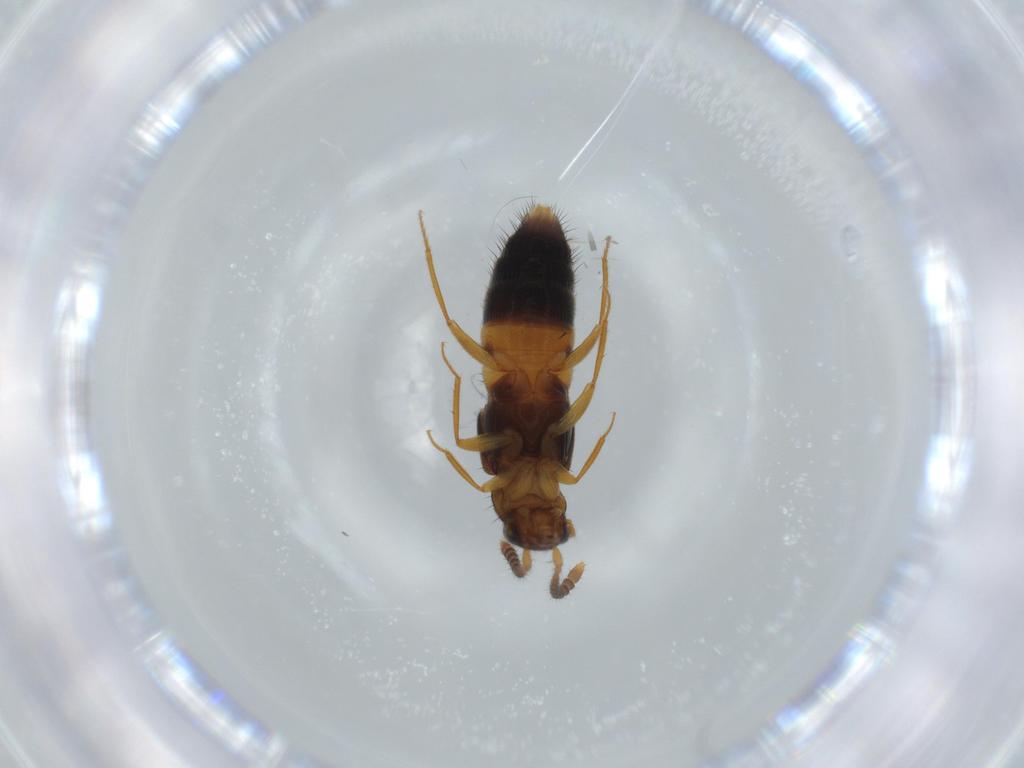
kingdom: Animalia
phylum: Arthropoda
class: Insecta
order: Coleoptera
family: Staphylinidae
